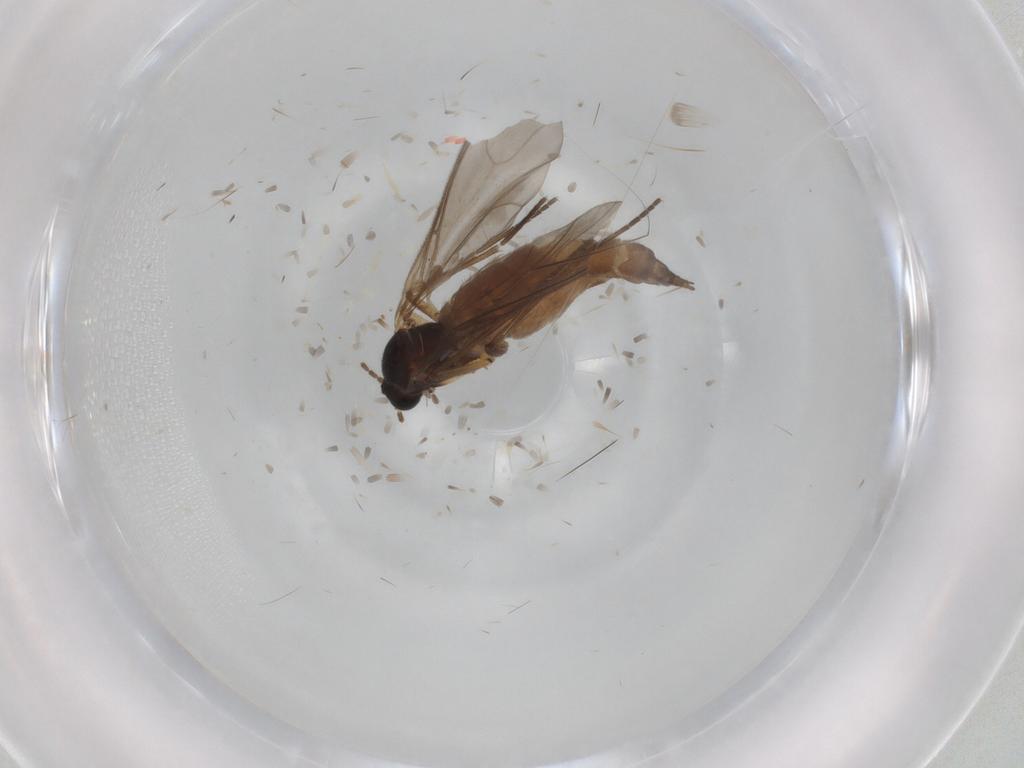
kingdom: Animalia
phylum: Arthropoda
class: Insecta
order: Diptera
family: Sciaridae
